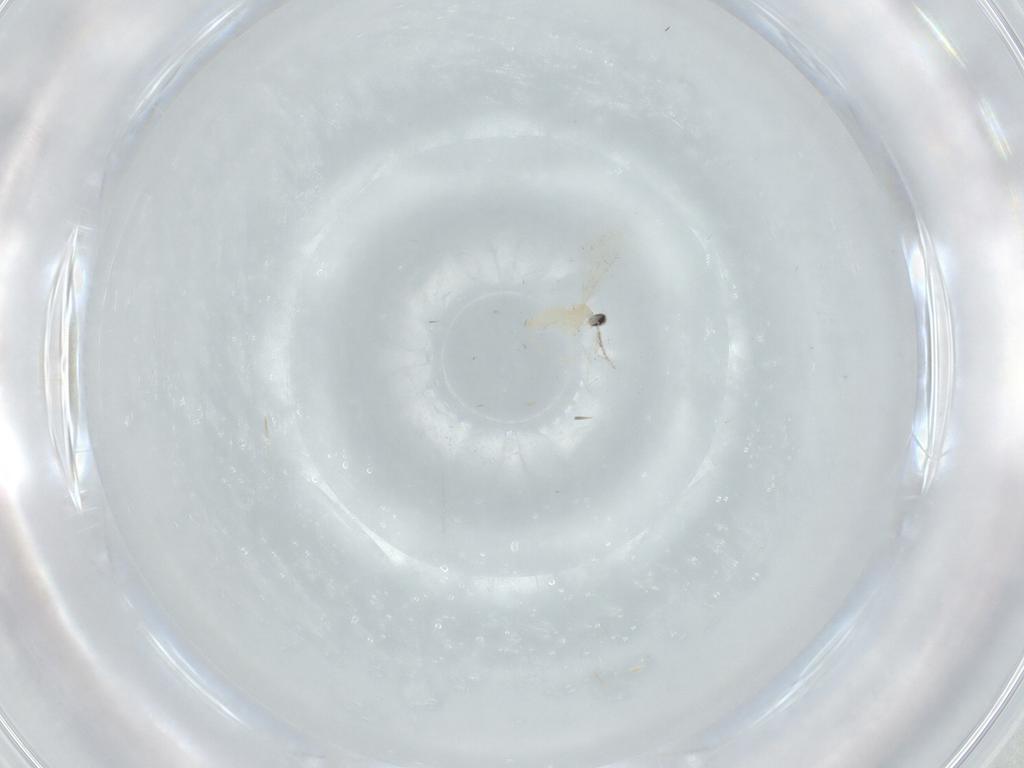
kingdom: Animalia
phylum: Arthropoda
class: Insecta
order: Diptera
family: Cecidomyiidae
